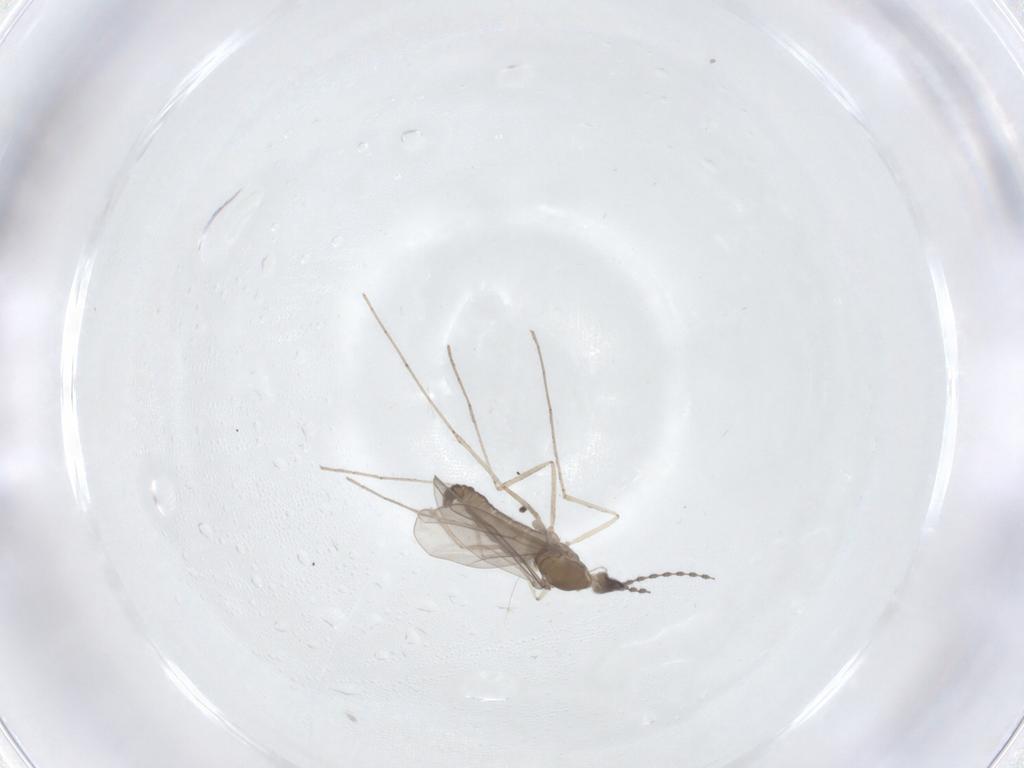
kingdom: Animalia
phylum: Arthropoda
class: Insecta
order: Diptera
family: Cecidomyiidae
